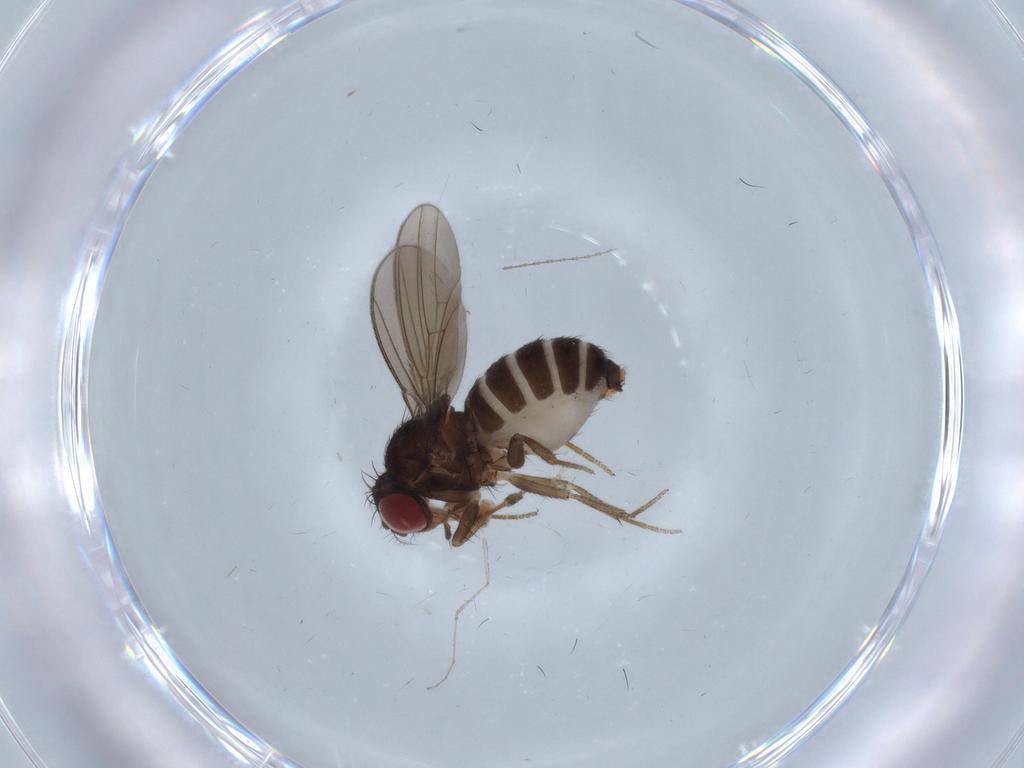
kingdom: Animalia
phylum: Arthropoda
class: Insecta
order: Diptera
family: Drosophilidae
